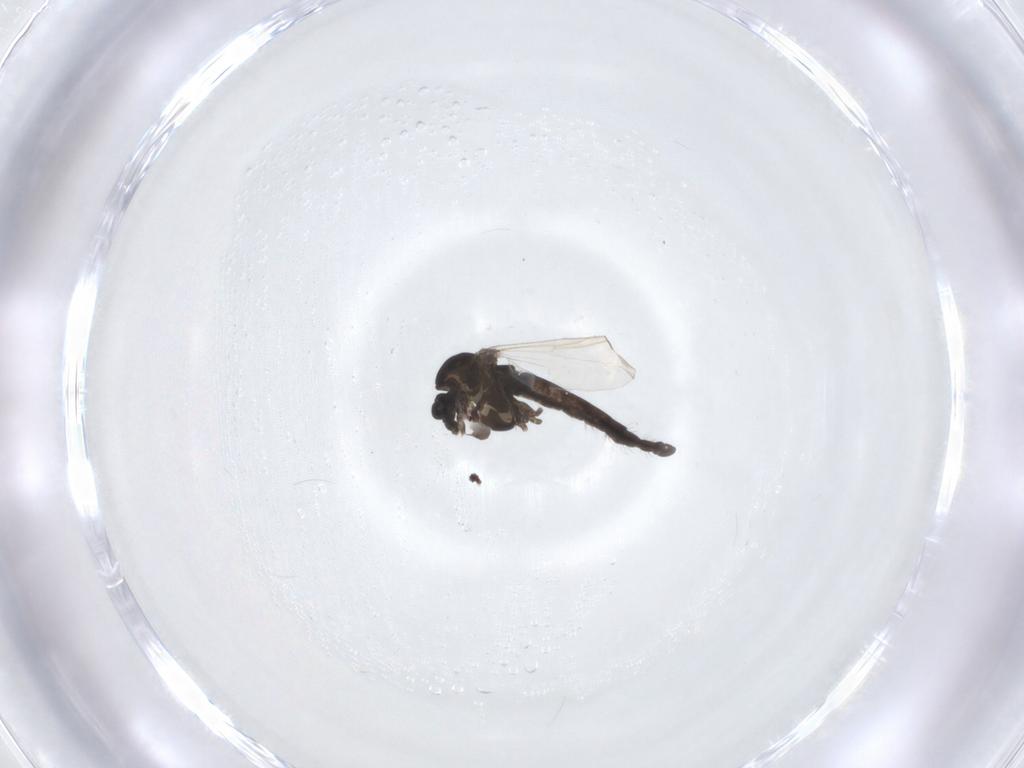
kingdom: Animalia
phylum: Arthropoda
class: Insecta
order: Diptera
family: Chironomidae
